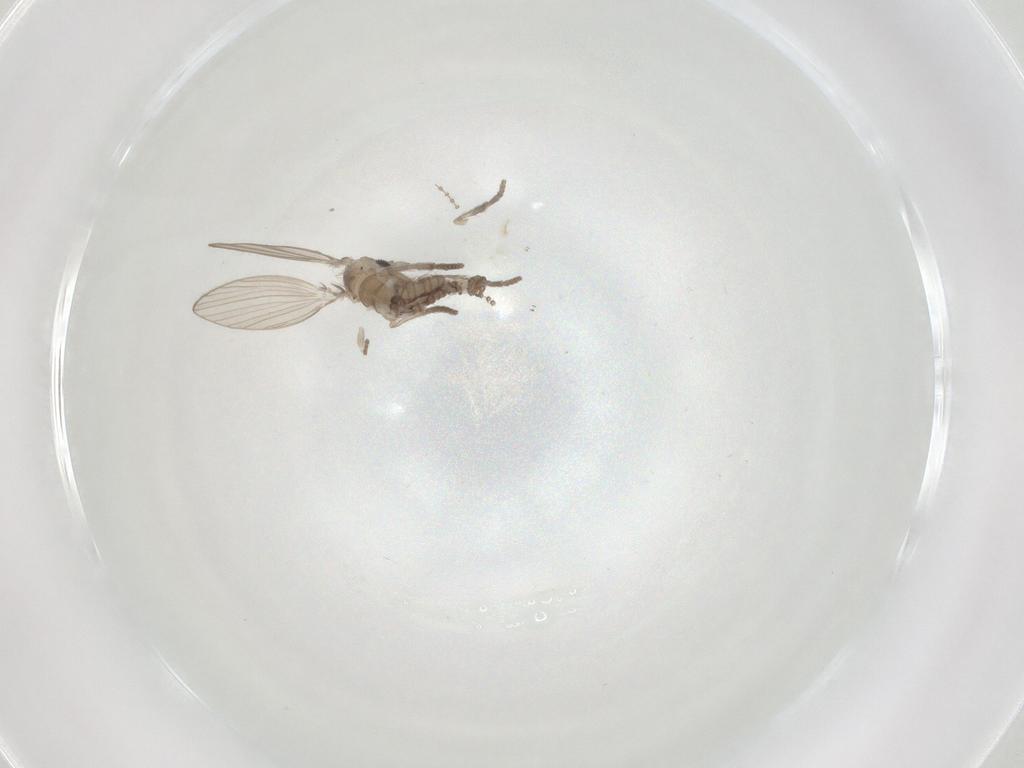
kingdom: Animalia
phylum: Arthropoda
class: Insecta
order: Diptera
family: Psychodidae
